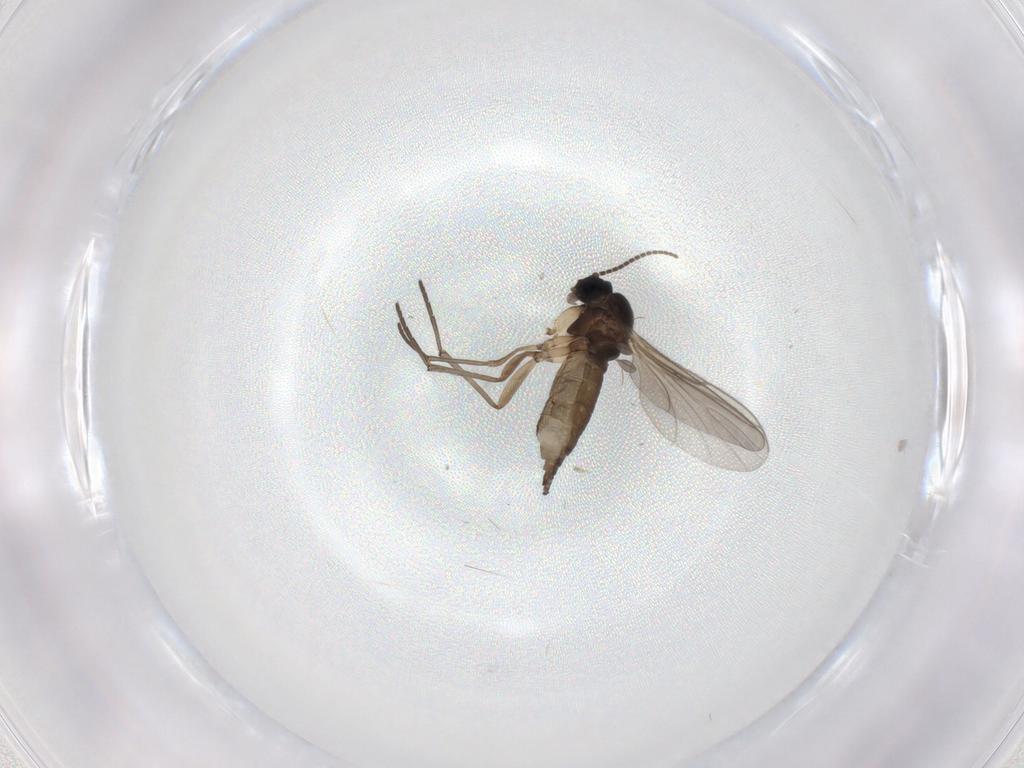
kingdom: Animalia
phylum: Arthropoda
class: Insecta
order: Diptera
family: Sciaridae
